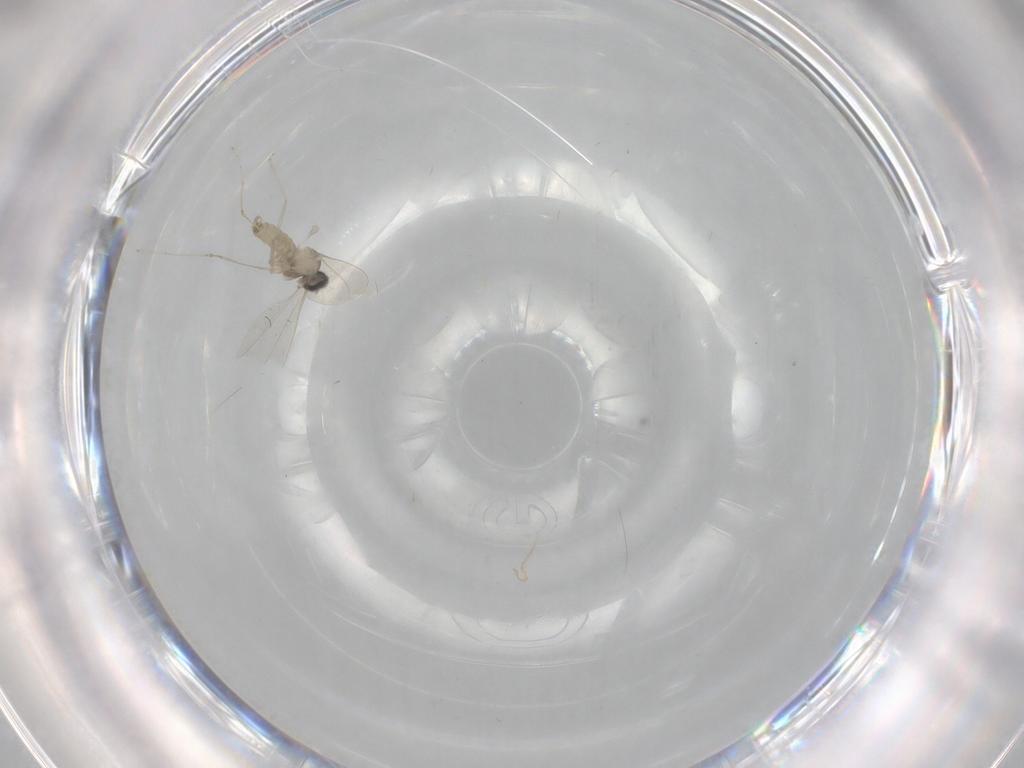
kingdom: Animalia
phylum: Arthropoda
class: Insecta
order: Diptera
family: Cecidomyiidae
